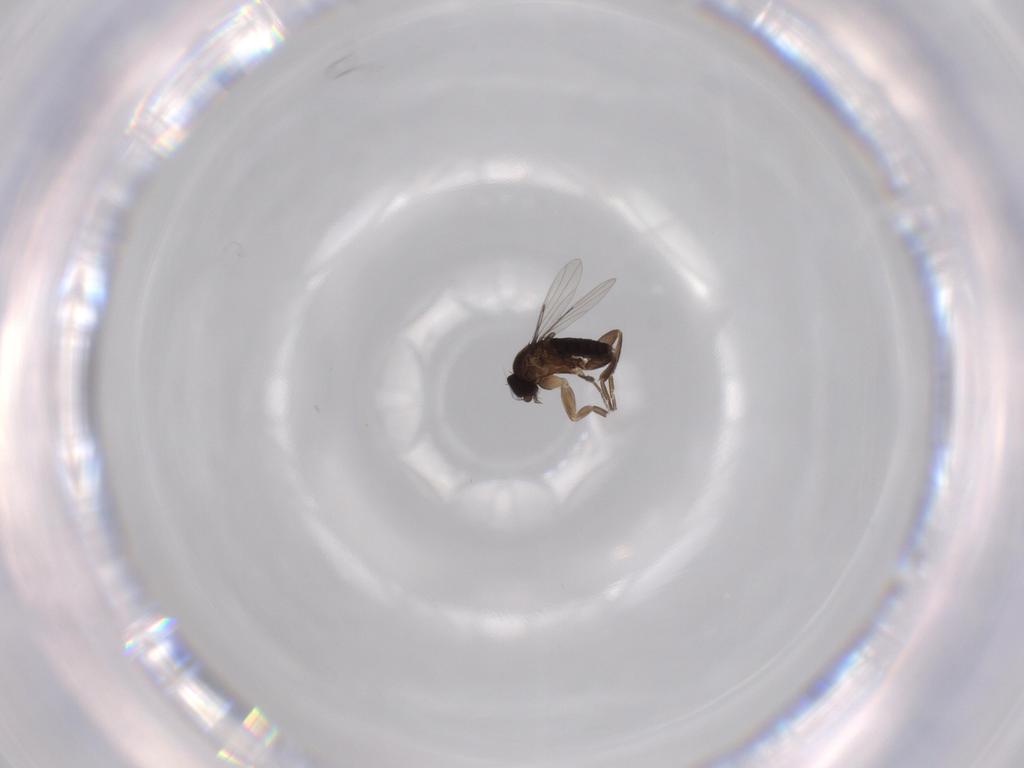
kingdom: Animalia
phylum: Arthropoda
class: Insecta
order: Diptera
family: Phoridae
